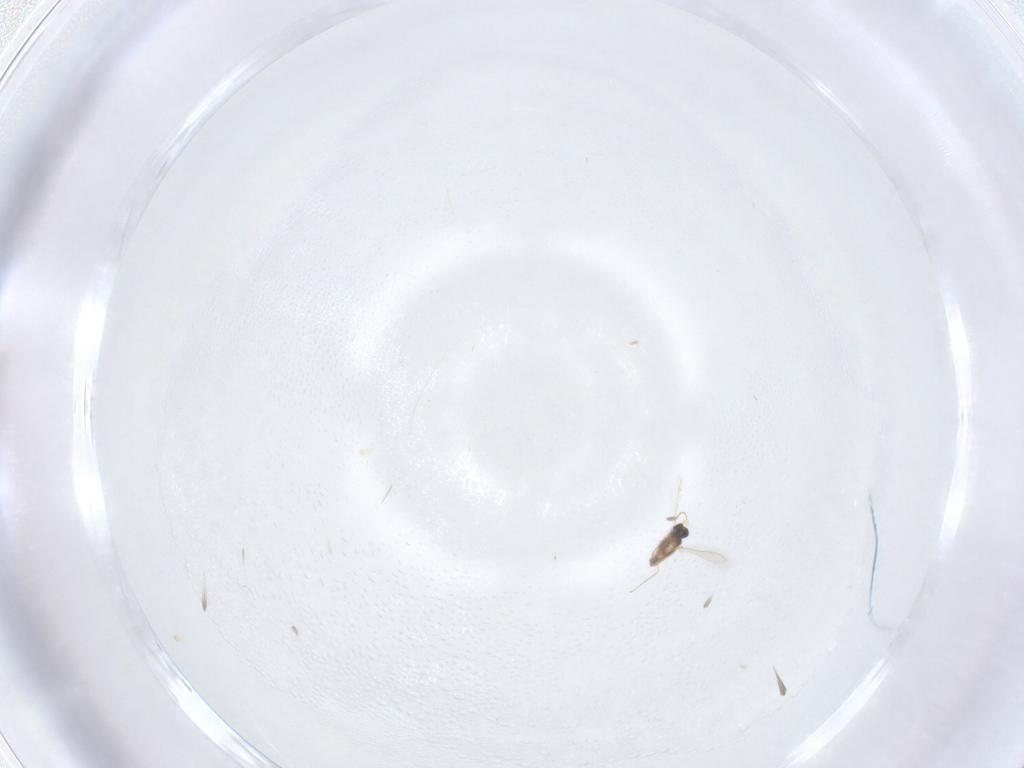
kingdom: Animalia
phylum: Arthropoda
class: Insecta
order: Hymenoptera
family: Mymaridae
